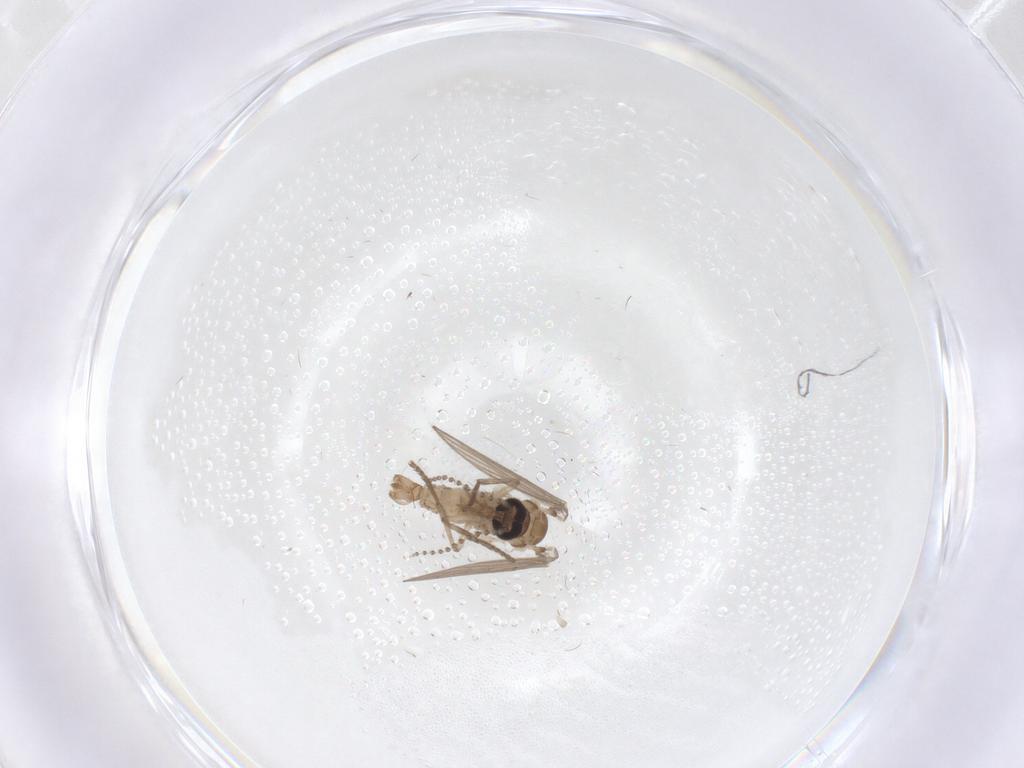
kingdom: Animalia
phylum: Arthropoda
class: Insecta
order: Diptera
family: Psychodidae
